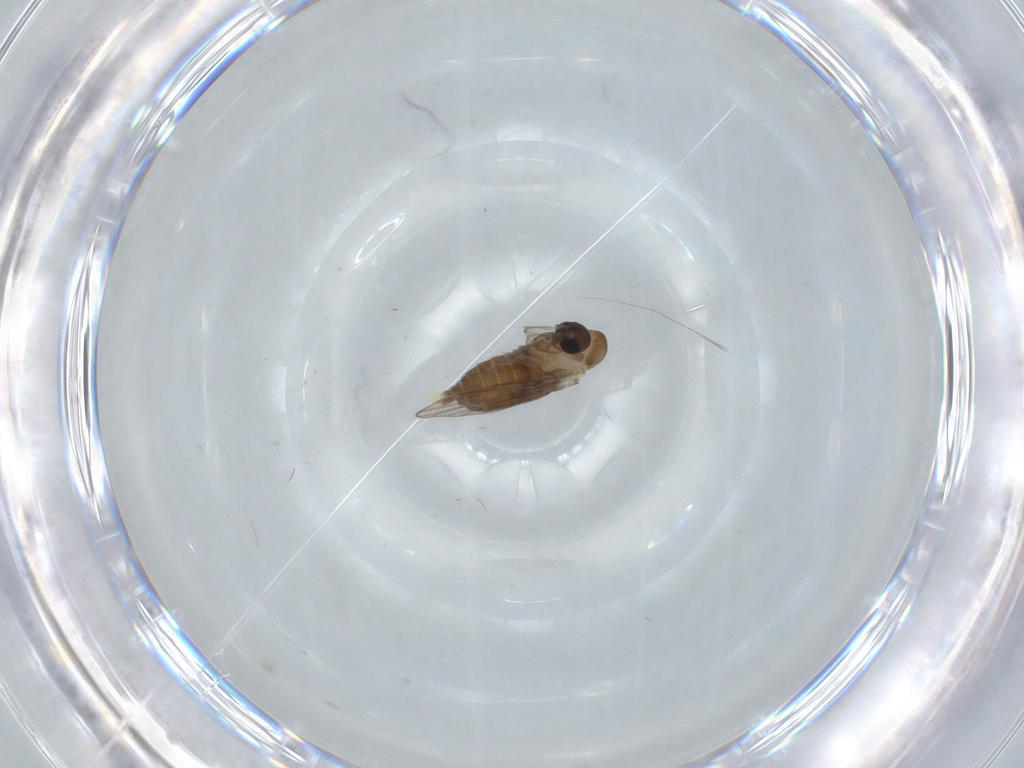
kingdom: Animalia
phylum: Arthropoda
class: Insecta
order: Diptera
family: Psychodidae
